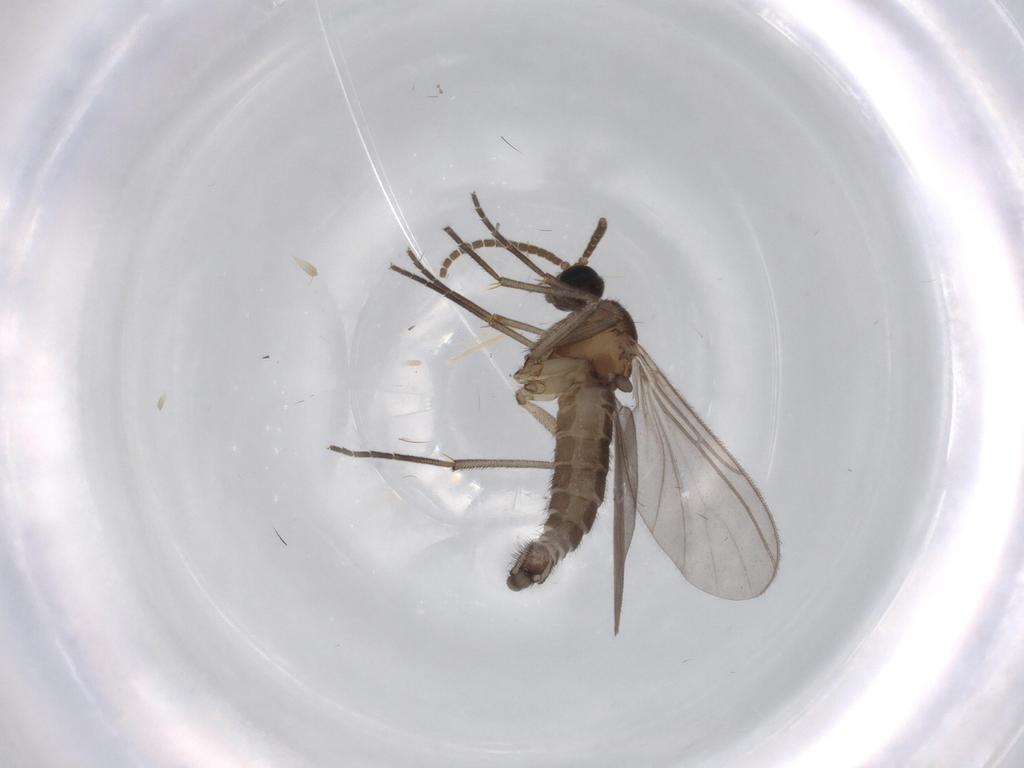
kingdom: Animalia
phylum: Arthropoda
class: Insecta
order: Diptera
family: Cecidomyiidae
